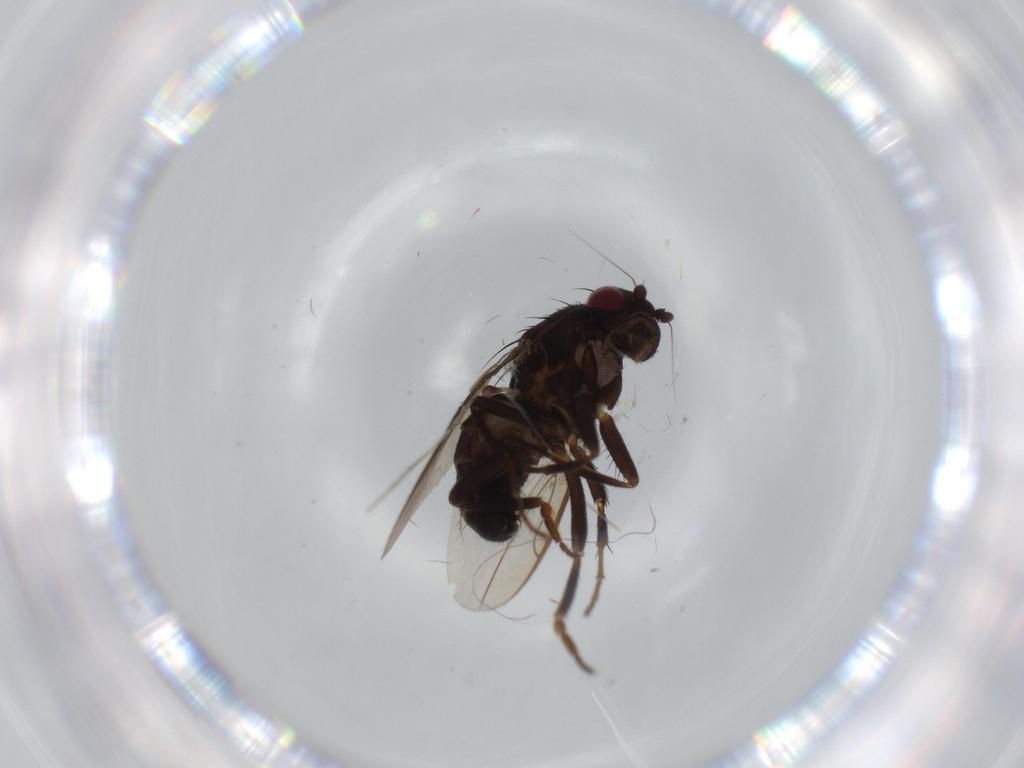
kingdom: Animalia
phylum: Arthropoda
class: Insecta
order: Diptera
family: Sphaeroceridae
